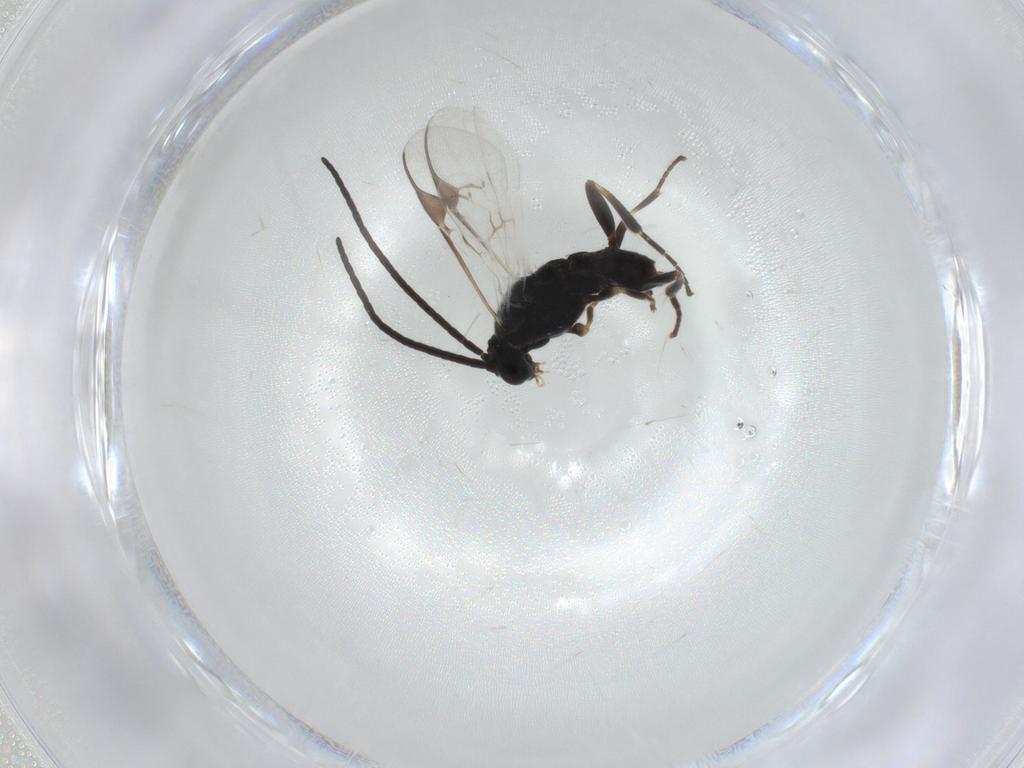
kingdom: Animalia
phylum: Arthropoda
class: Insecta
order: Hymenoptera
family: Braconidae
